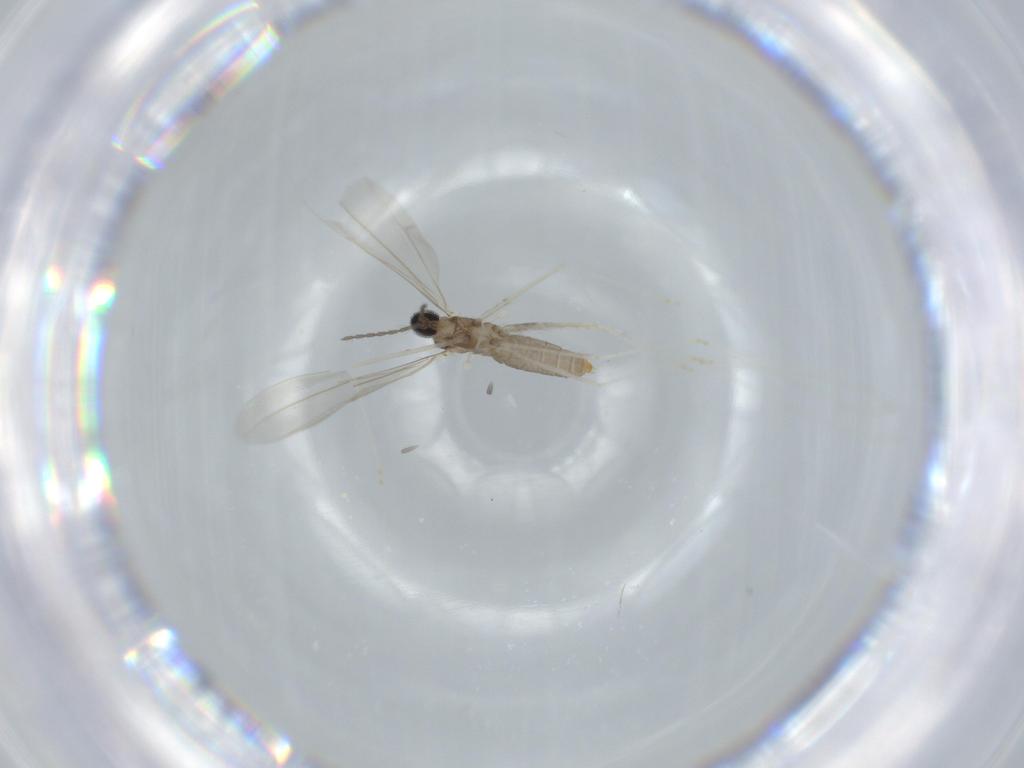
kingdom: Animalia
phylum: Arthropoda
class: Insecta
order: Diptera
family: Cecidomyiidae
